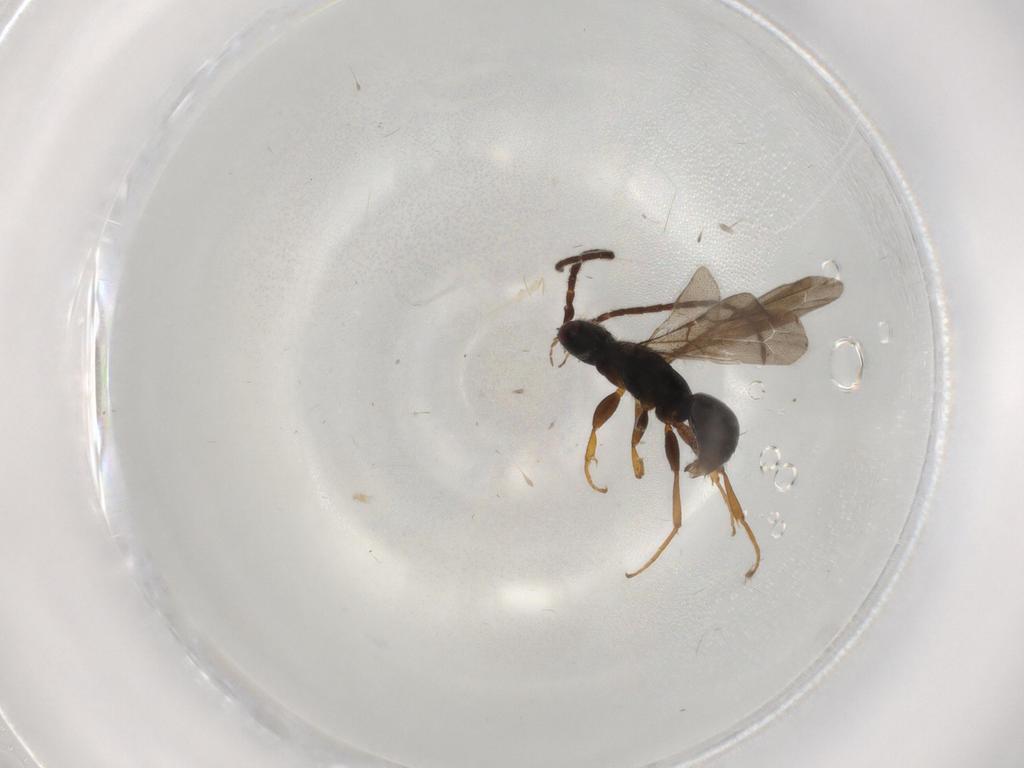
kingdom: Animalia
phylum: Arthropoda
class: Insecta
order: Hymenoptera
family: Bethylidae
